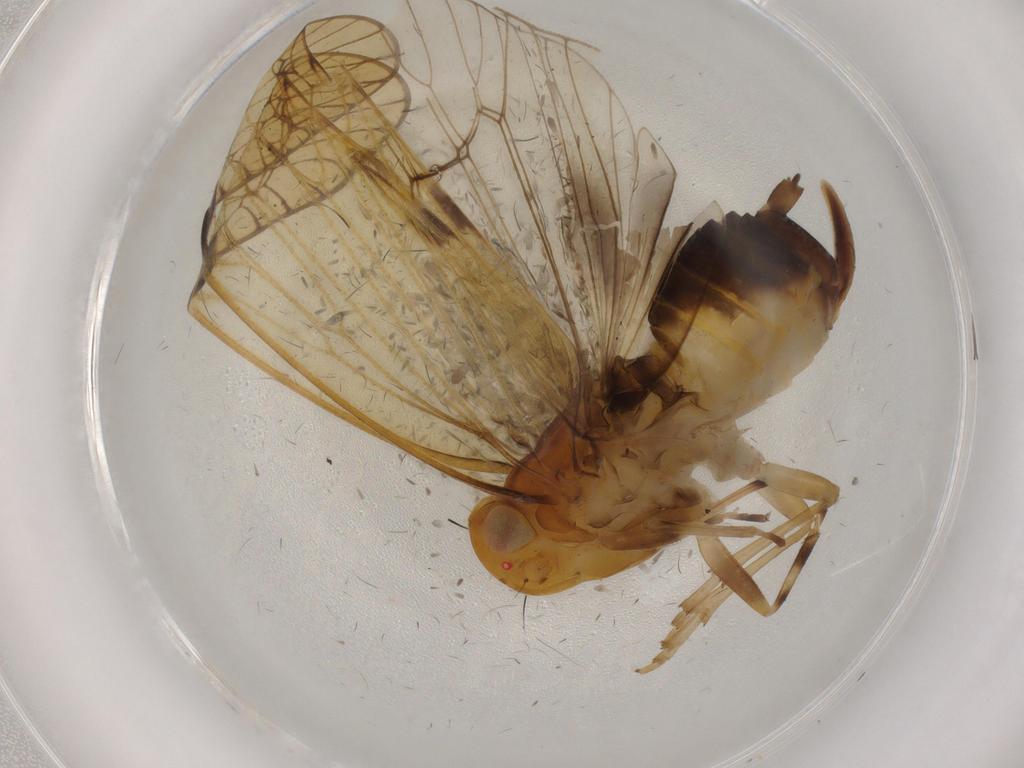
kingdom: Animalia
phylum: Arthropoda
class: Insecta
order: Hemiptera
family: Cixiidae
